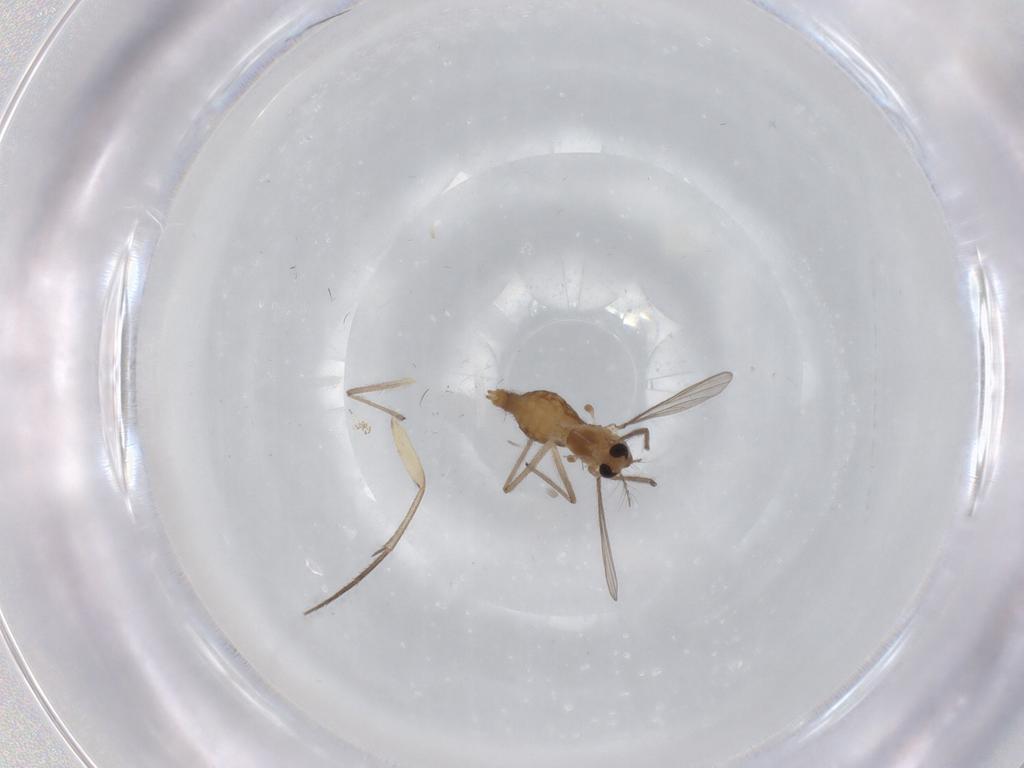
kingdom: Animalia
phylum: Arthropoda
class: Insecta
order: Diptera
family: Chironomidae
